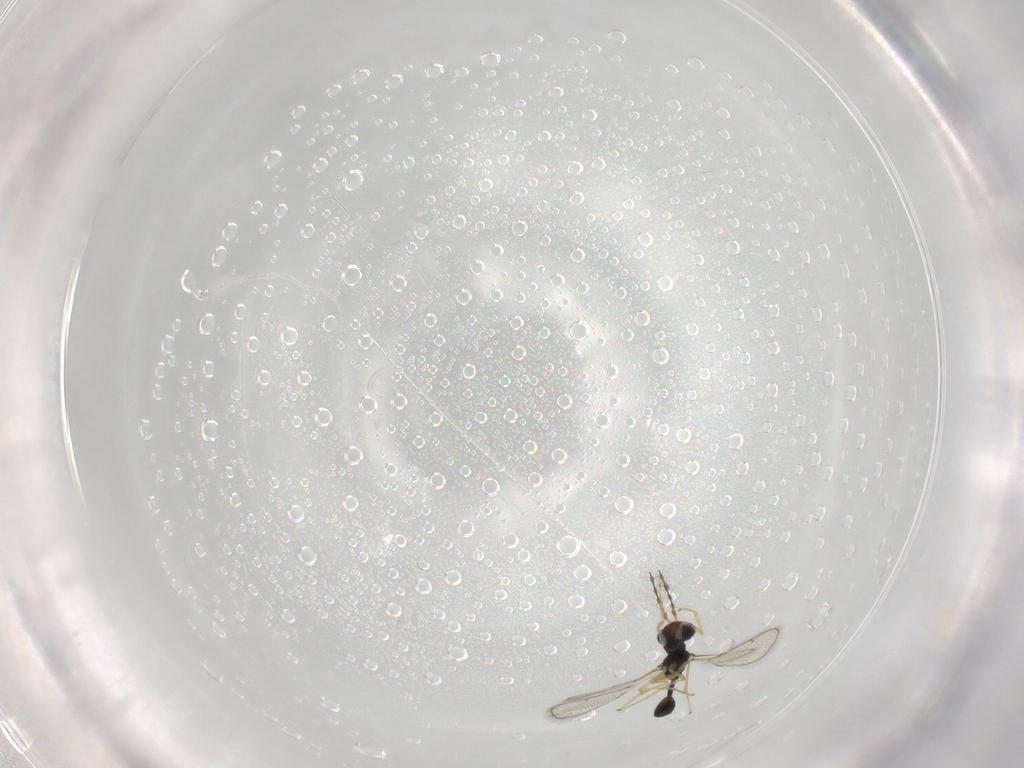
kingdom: Animalia
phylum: Arthropoda
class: Insecta
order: Hymenoptera
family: Pteromalidae
